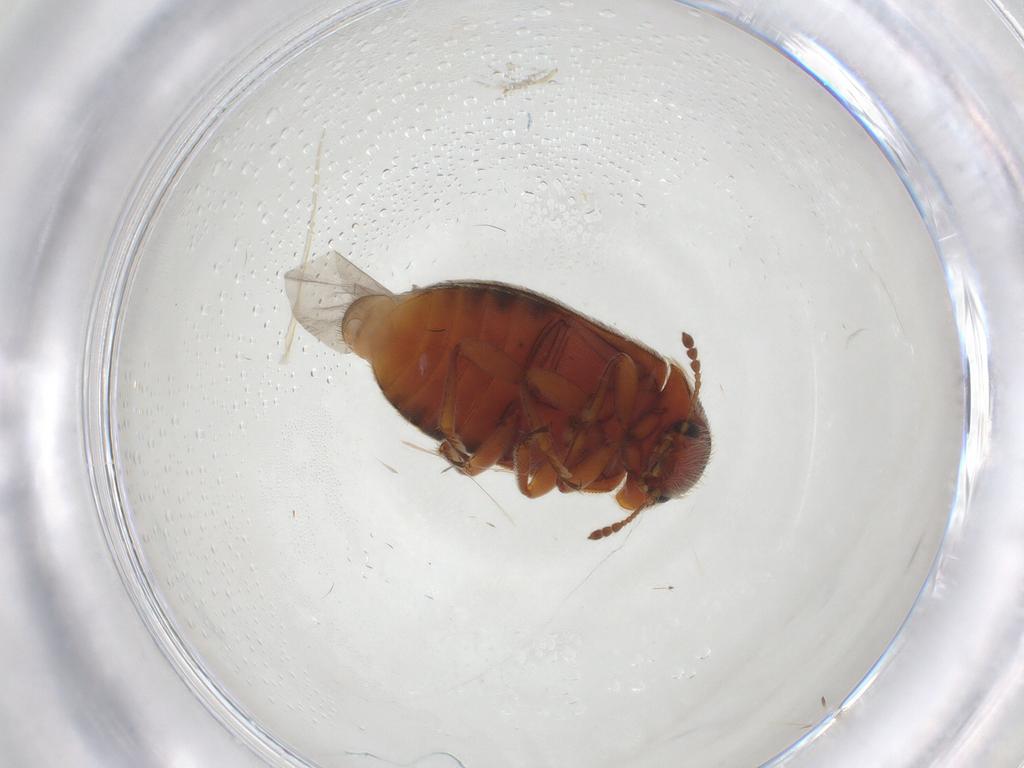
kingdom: Animalia
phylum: Arthropoda
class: Insecta
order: Coleoptera
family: Byturidae
